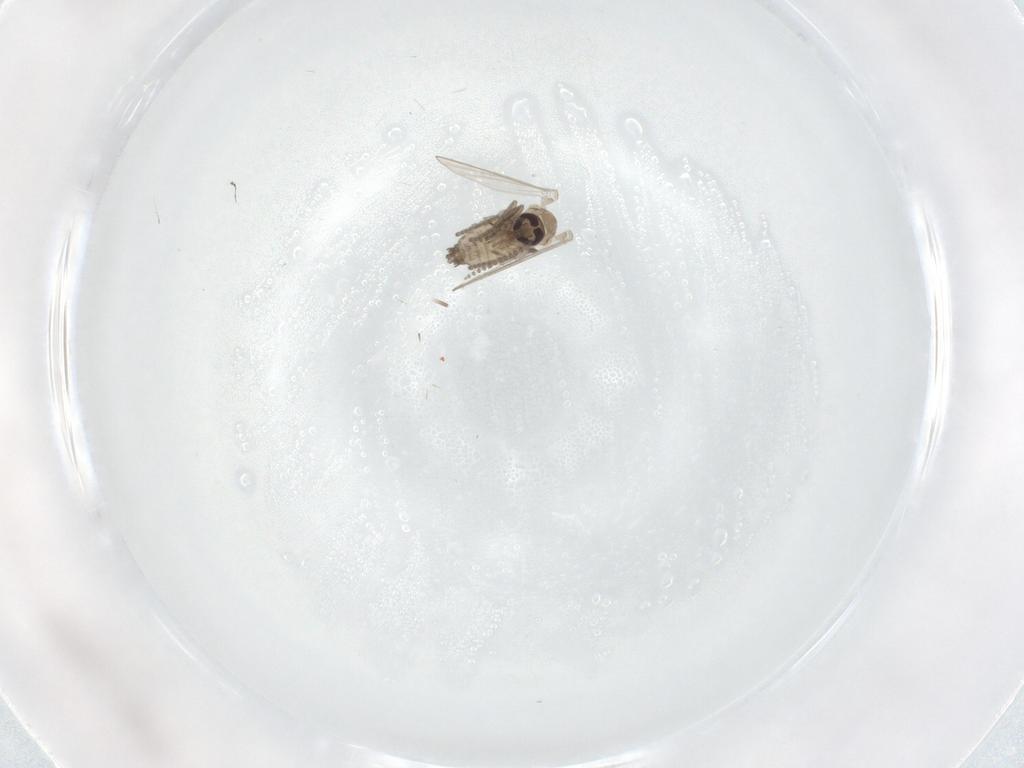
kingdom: Animalia
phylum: Arthropoda
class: Insecta
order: Diptera
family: Psychodidae
